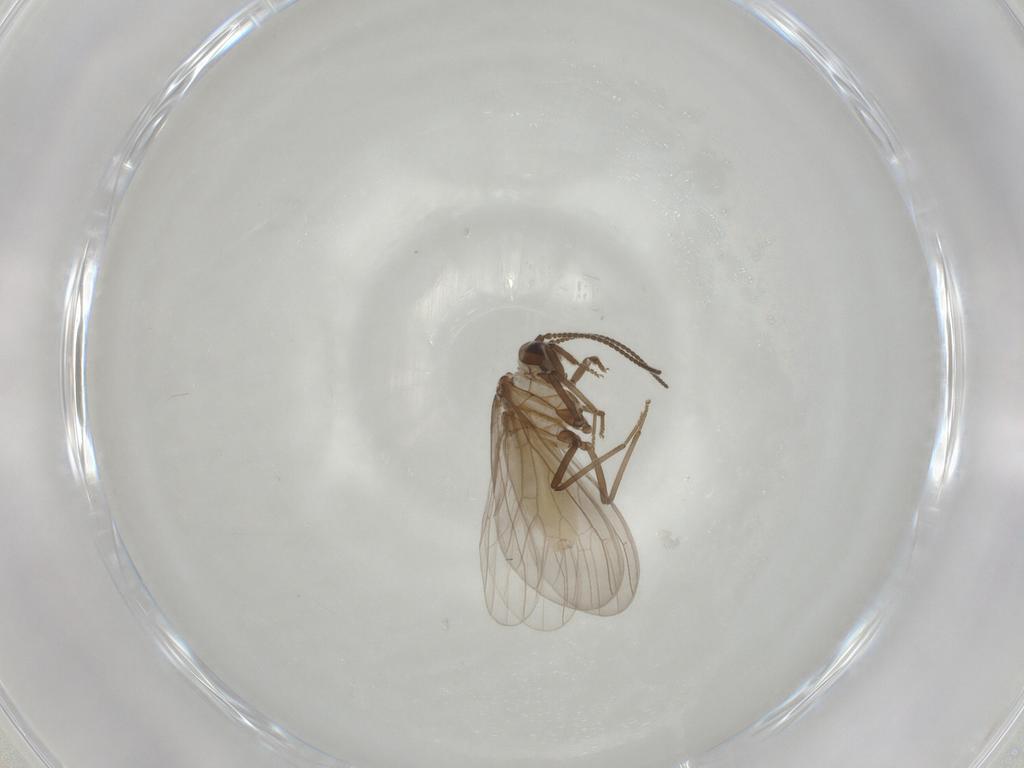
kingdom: Animalia
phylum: Arthropoda
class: Insecta
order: Neuroptera
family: Coniopterygidae
